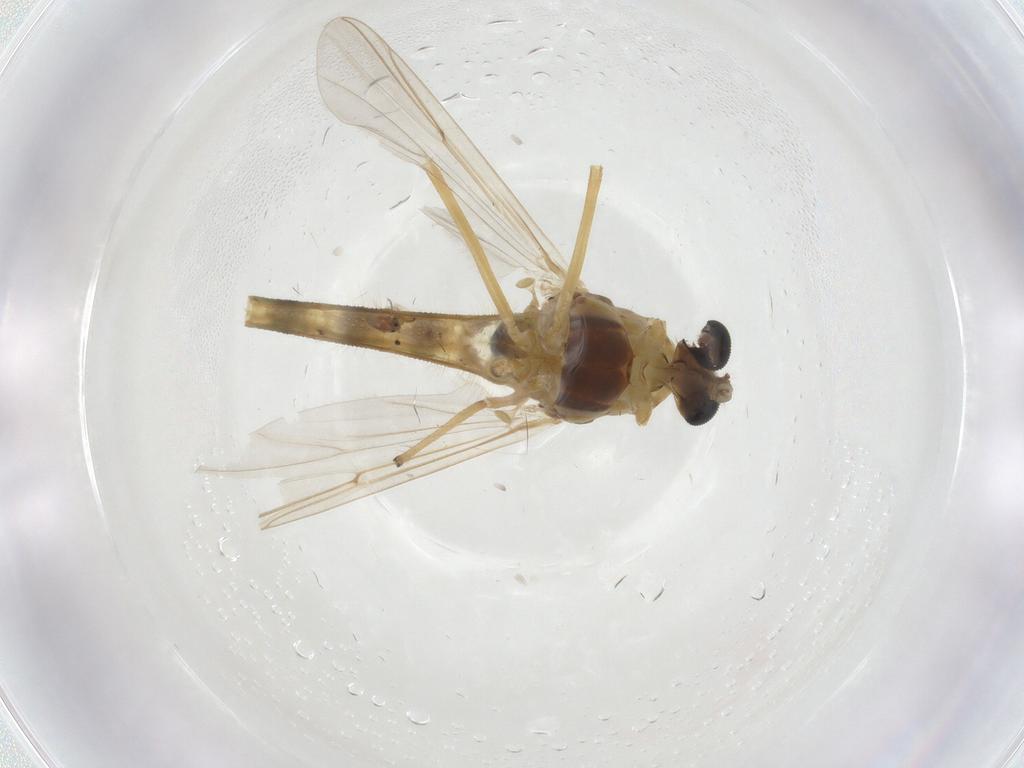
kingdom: Animalia
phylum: Arthropoda
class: Insecta
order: Diptera
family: Chironomidae
